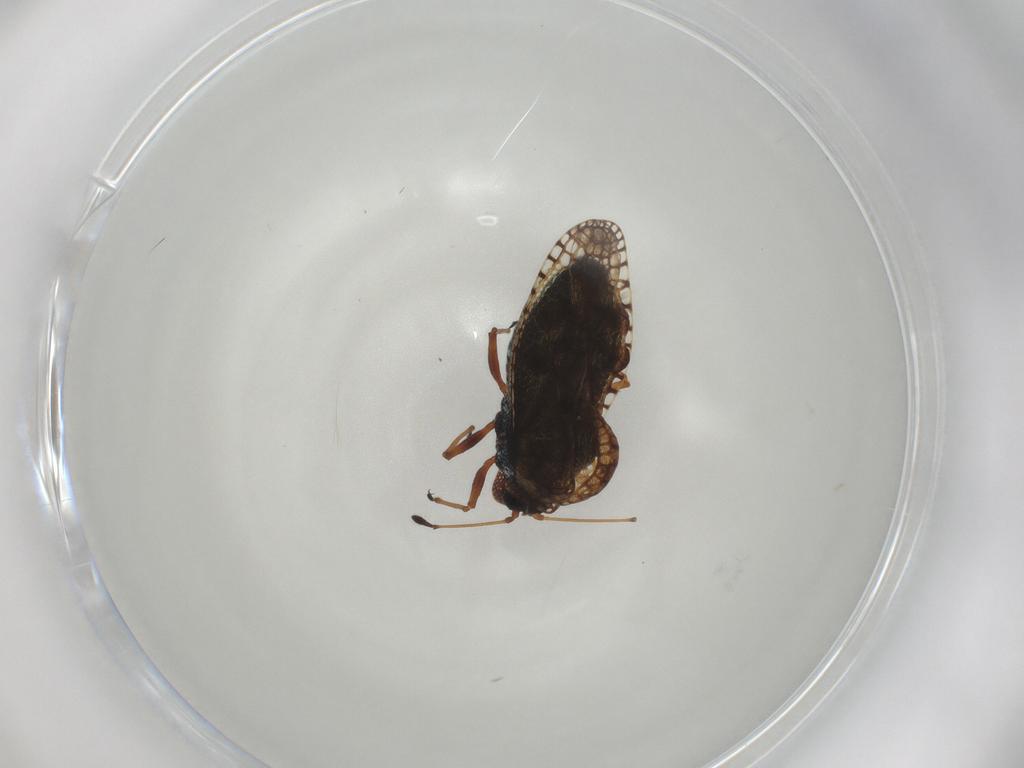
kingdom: Animalia
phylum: Arthropoda
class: Insecta
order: Hemiptera
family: Tingidae
